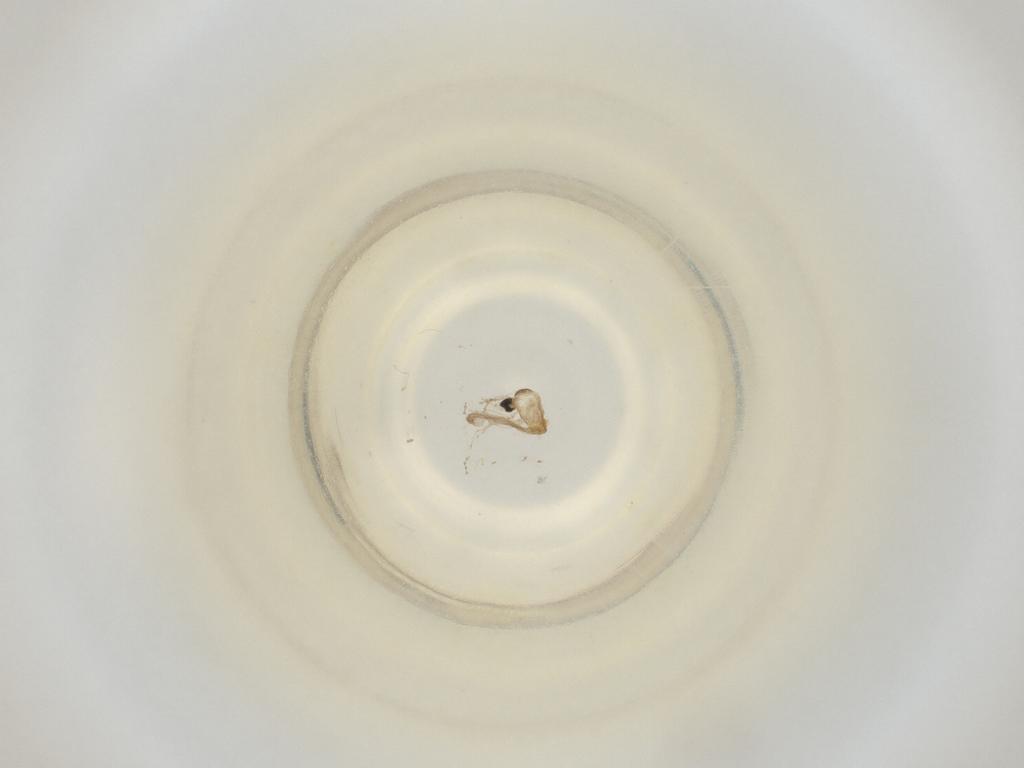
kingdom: Animalia
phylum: Arthropoda
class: Insecta
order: Diptera
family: Cecidomyiidae
